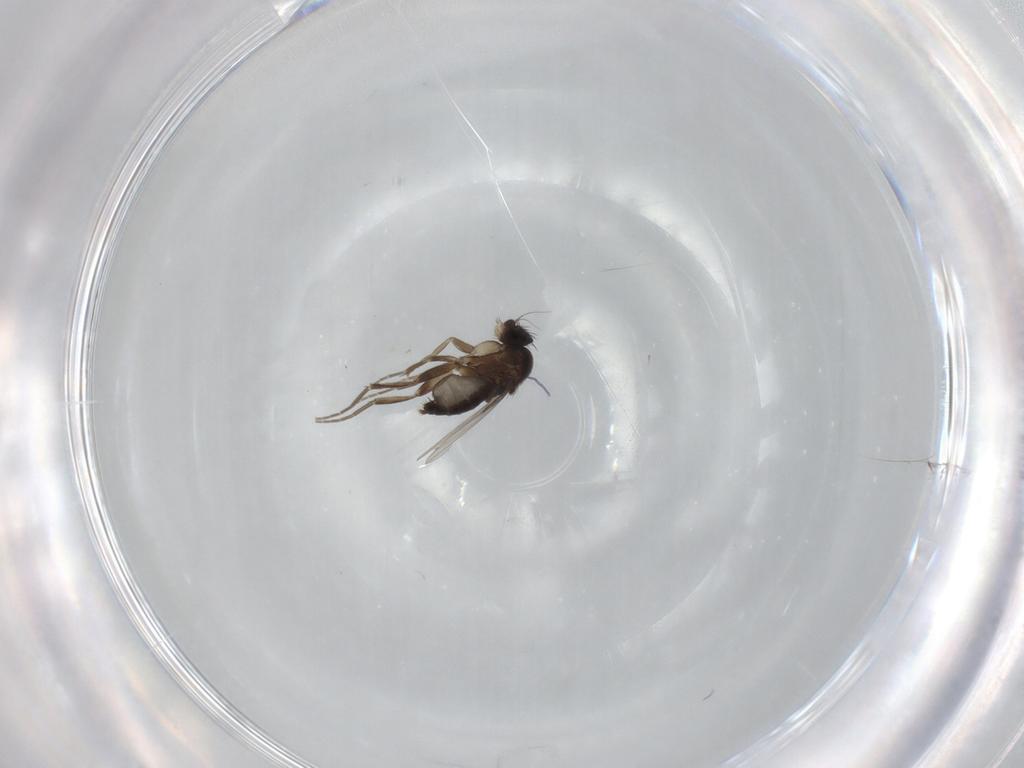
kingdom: Animalia
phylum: Arthropoda
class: Insecta
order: Diptera
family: Phoridae
